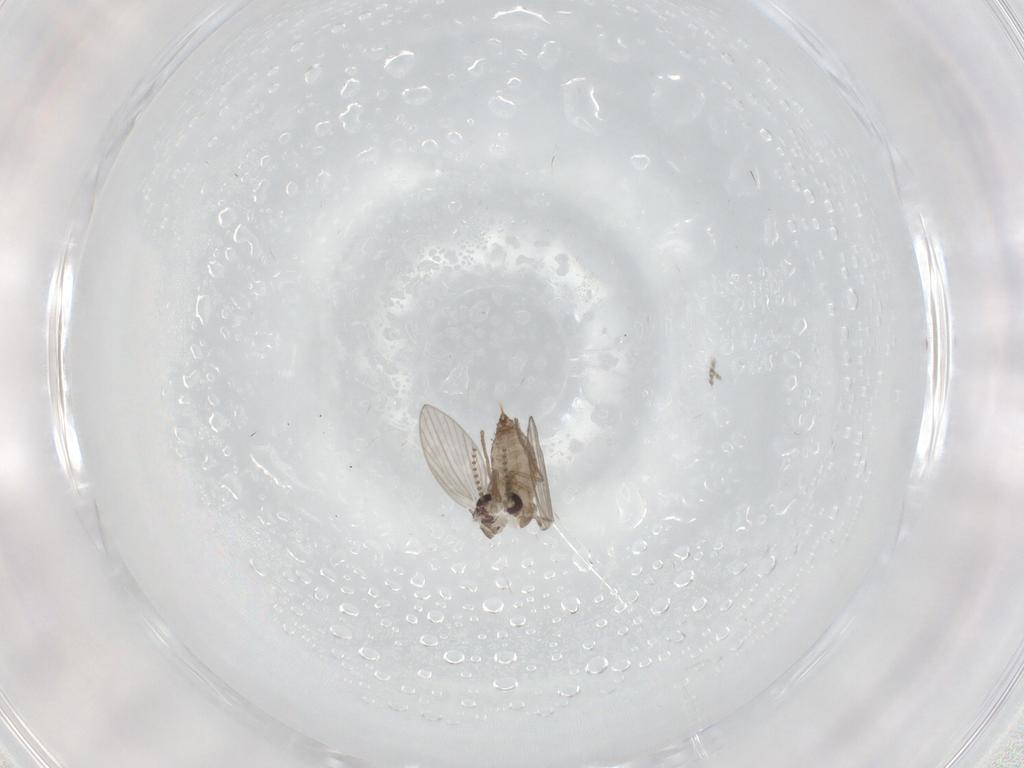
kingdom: Animalia
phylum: Arthropoda
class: Insecta
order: Diptera
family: Psychodidae
